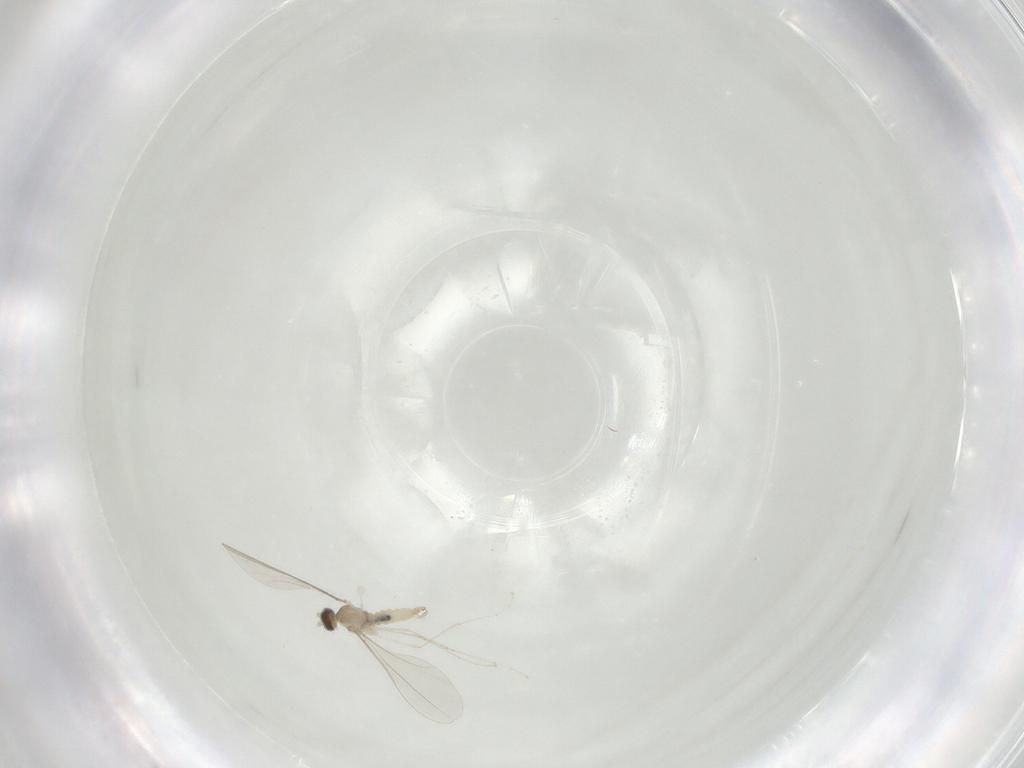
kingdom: Animalia
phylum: Arthropoda
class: Insecta
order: Diptera
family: Cecidomyiidae
